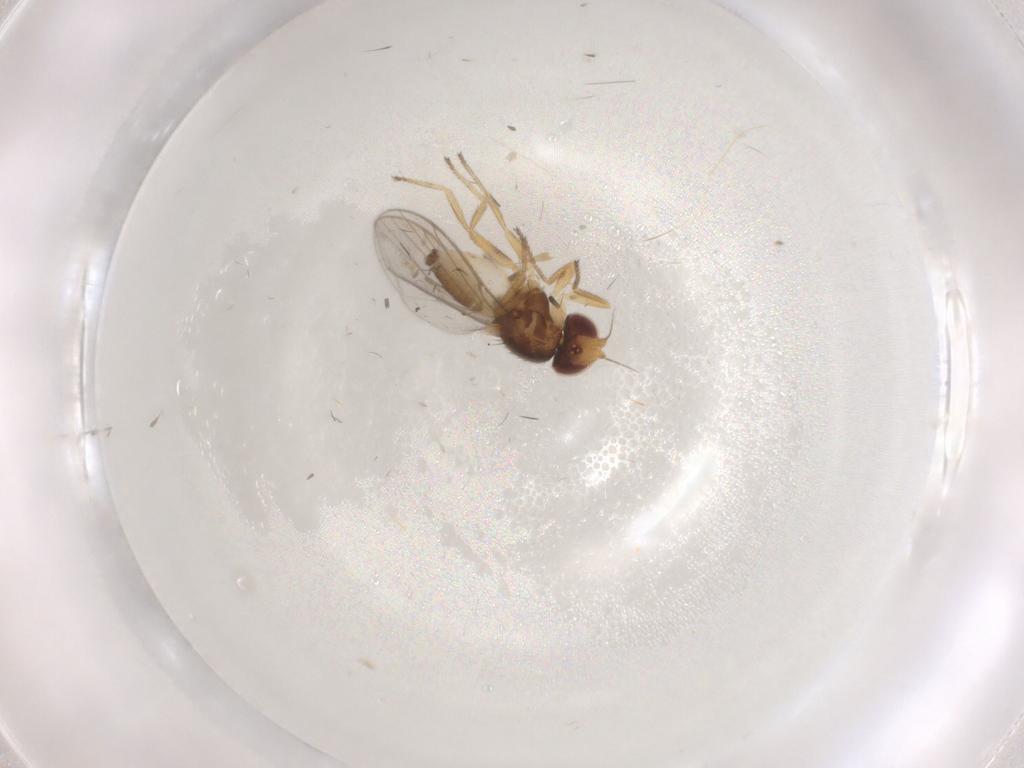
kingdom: Animalia
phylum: Arthropoda
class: Insecta
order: Diptera
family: Chloropidae
